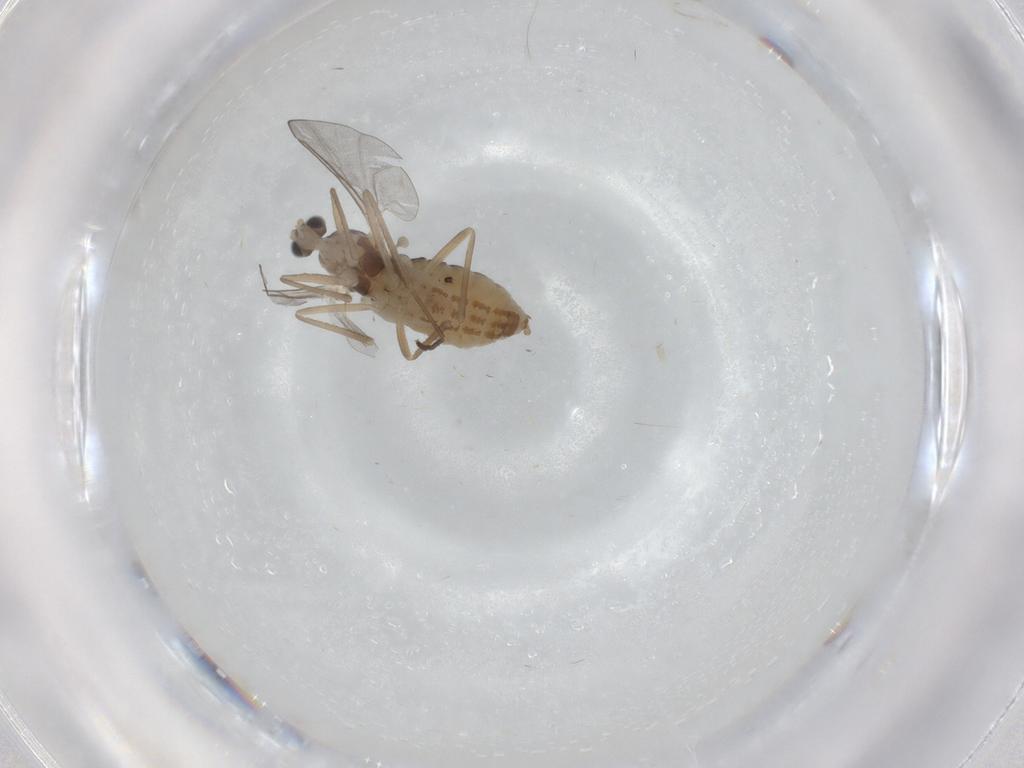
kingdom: Animalia
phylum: Arthropoda
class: Insecta
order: Diptera
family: Cecidomyiidae
